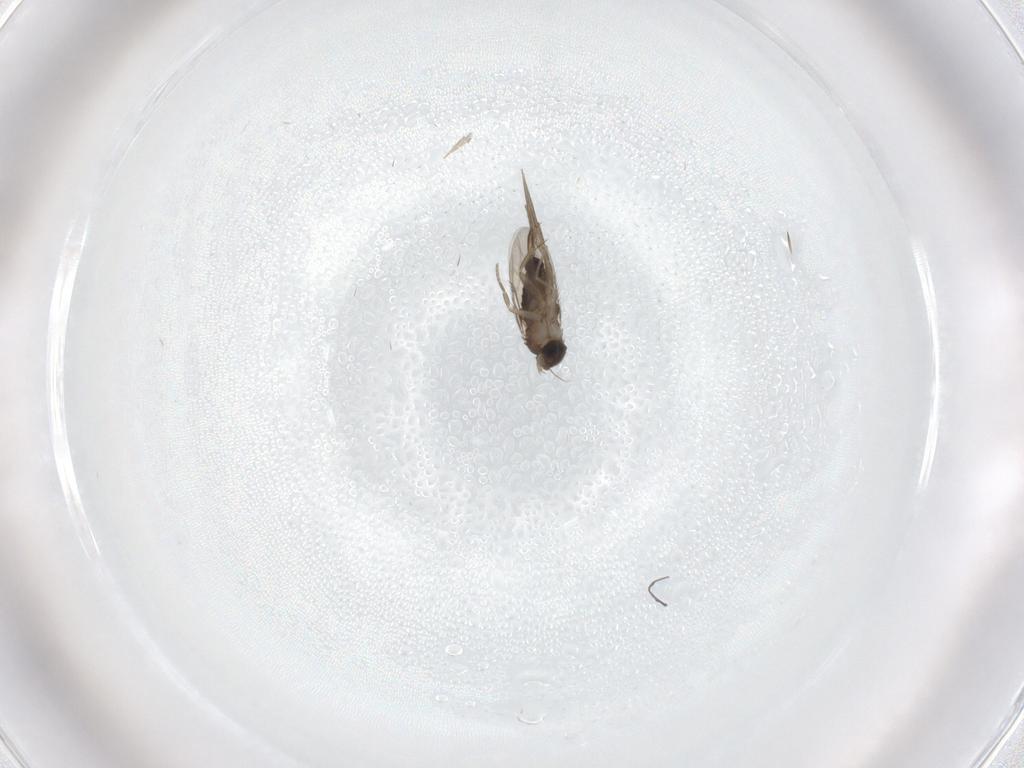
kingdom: Animalia
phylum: Arthropoda
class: Insecta
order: Diptera
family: Phoridae
